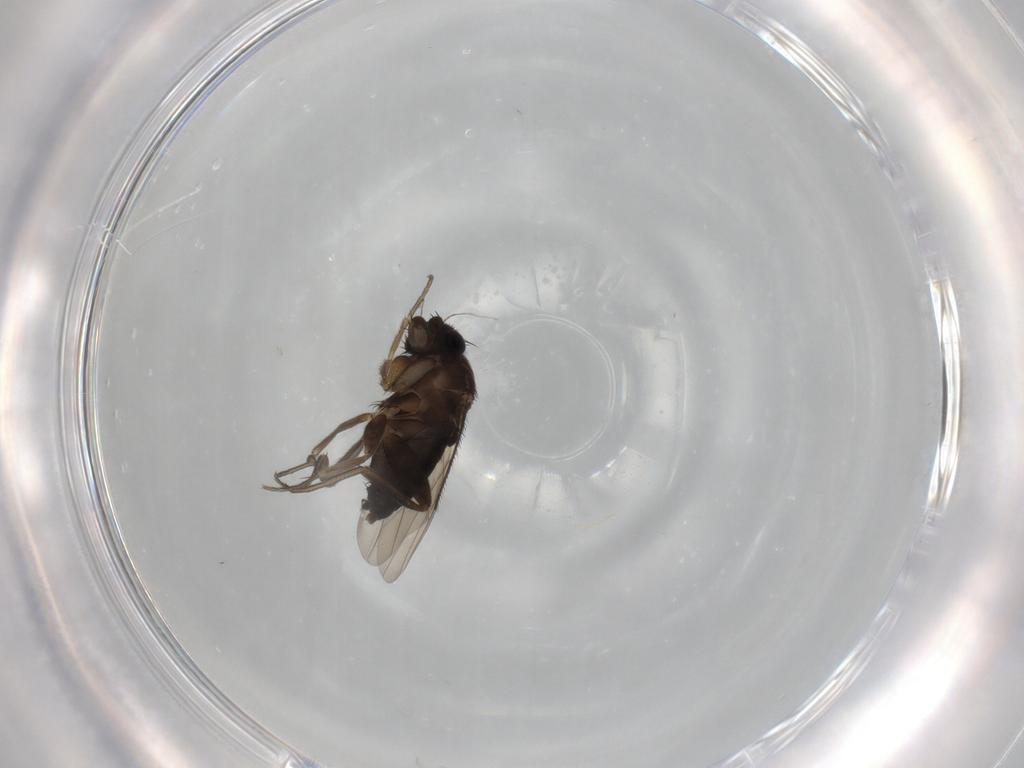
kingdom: Animalia
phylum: Arthropoda
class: Insecta
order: Diptera
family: Phoridae
